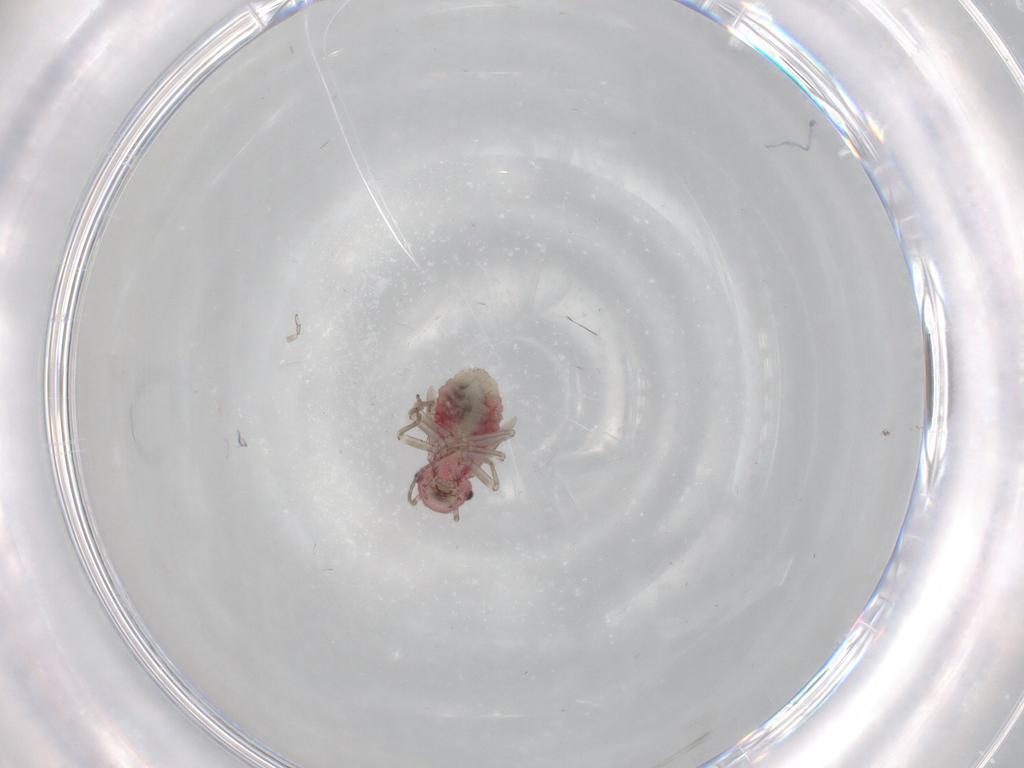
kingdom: Animalia
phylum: Arthropoda
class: Insecta
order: Psocodea
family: Archipsocidae
